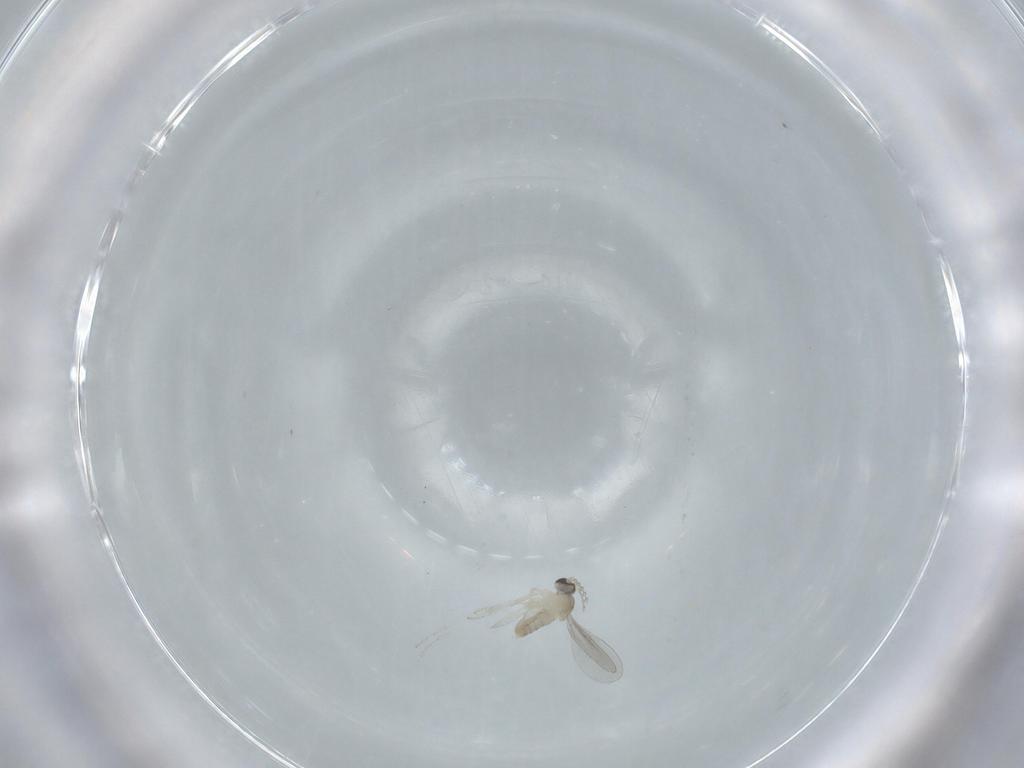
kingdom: Animalia
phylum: Arthropoda
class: Insecta
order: Diptera
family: Cecidomyiidae
